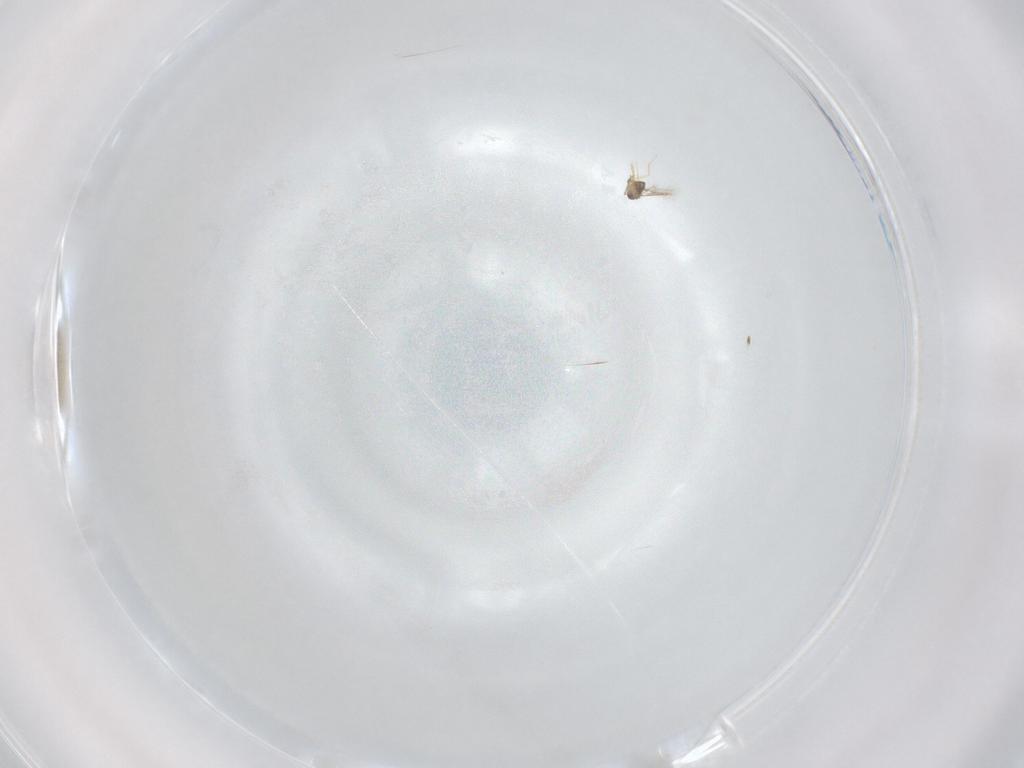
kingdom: Animalia
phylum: Arthropoda
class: Insecta
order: Hymenoptera
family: Mymaridae
